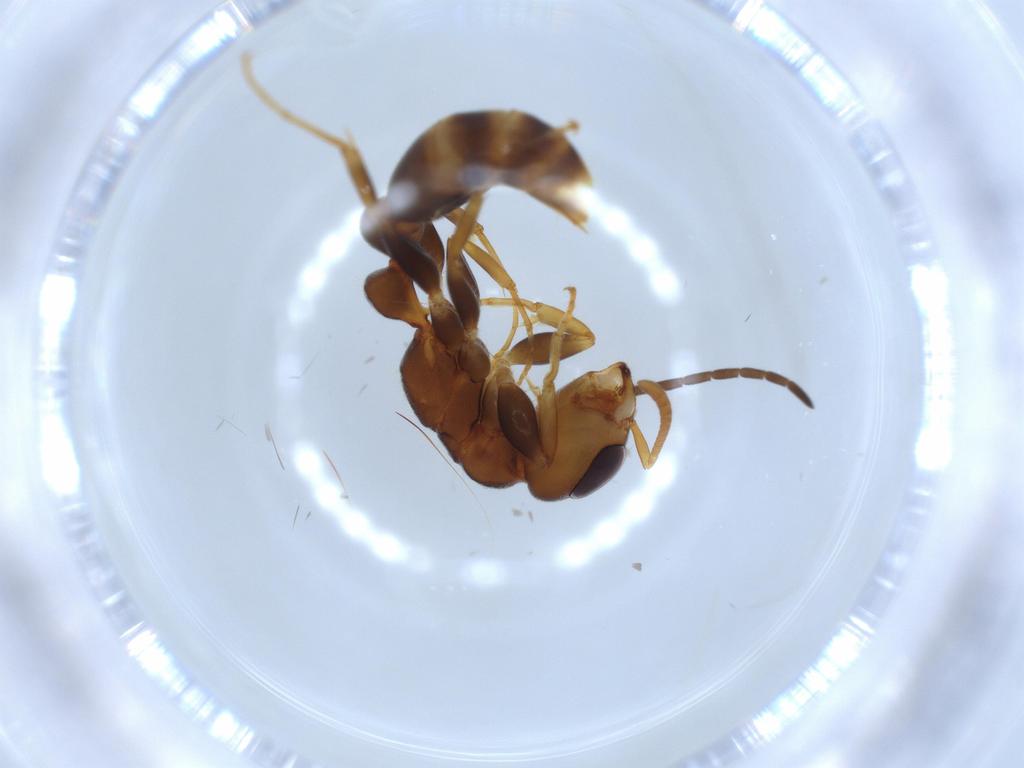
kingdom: Animalia
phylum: Arthropoda
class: Insecta
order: Hymenoptera
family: Formicidae
